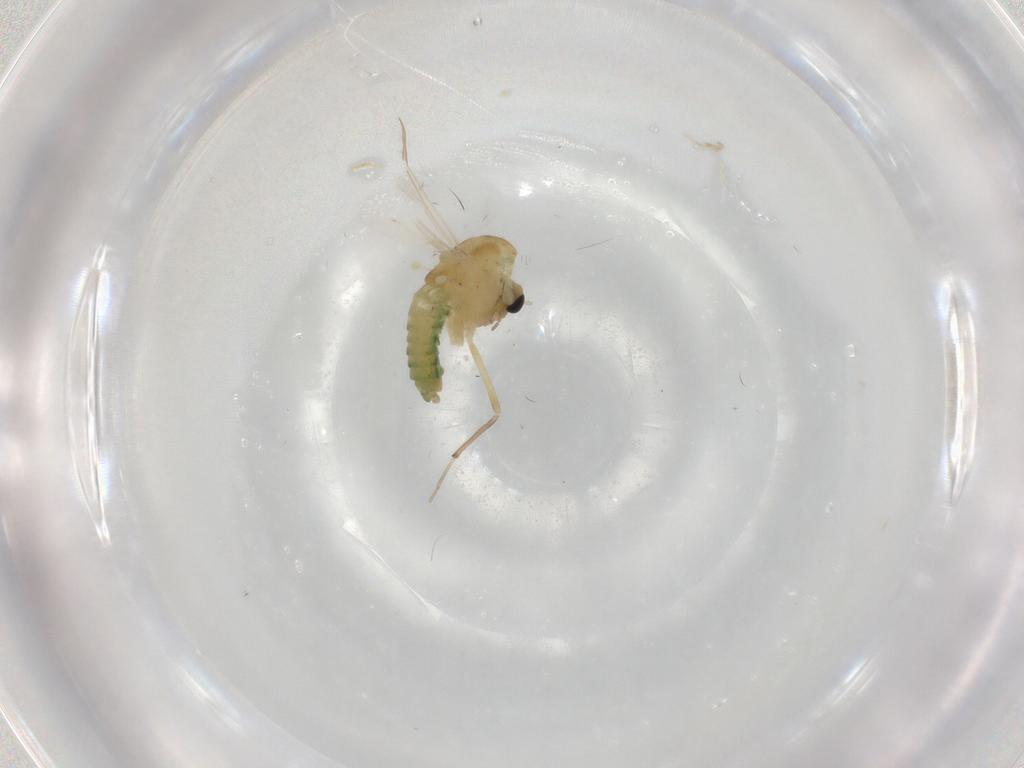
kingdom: Animalia
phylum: Arthropoda
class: Insecta
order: Diptera
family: Chironomidae
